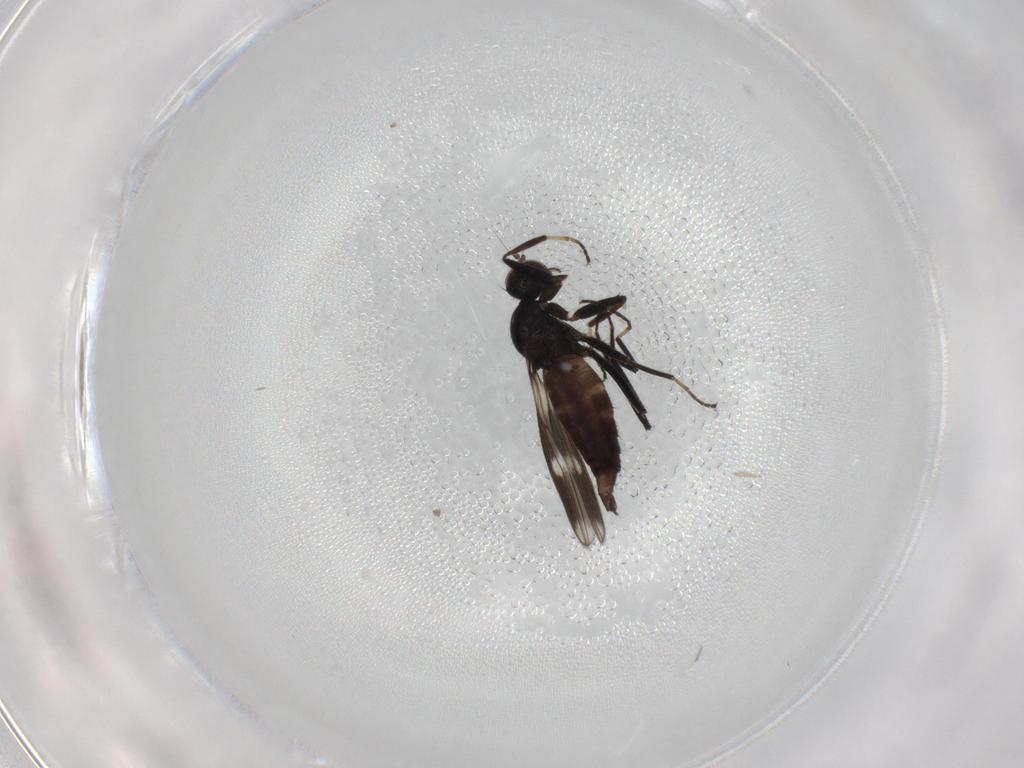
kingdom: Animalia
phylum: Arthropoda
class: Insecta
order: Diptera
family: Hybotidae
